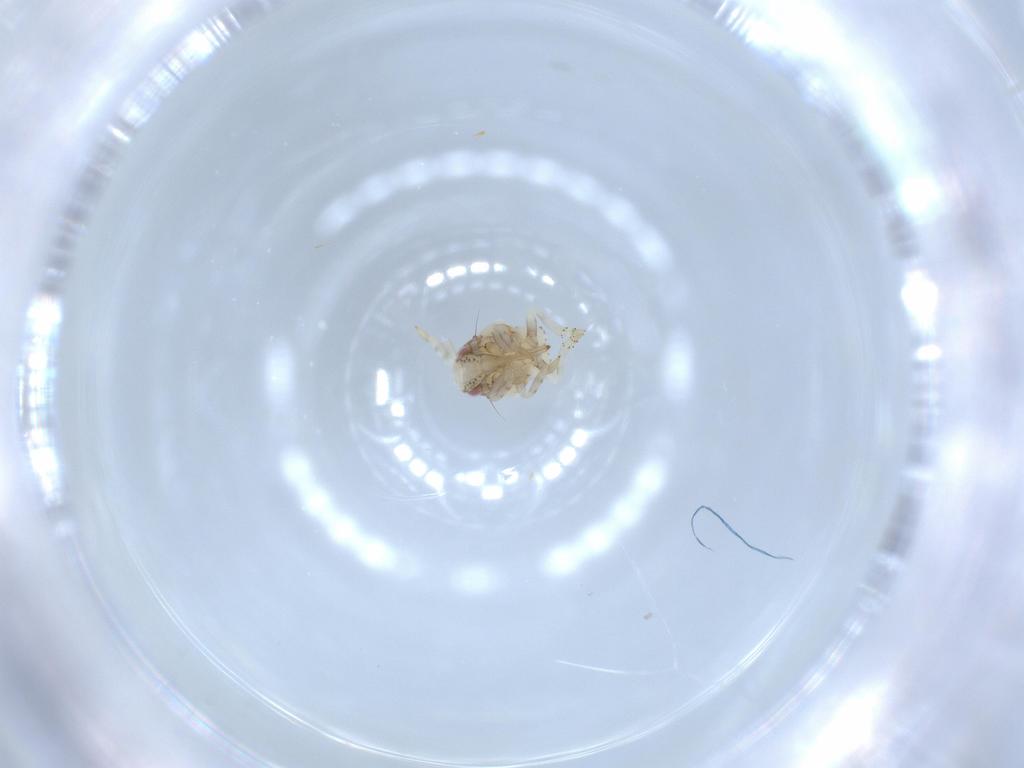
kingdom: Animalia
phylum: Arthropoda
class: Insecta
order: Hemiptera
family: Acanaloniidae
